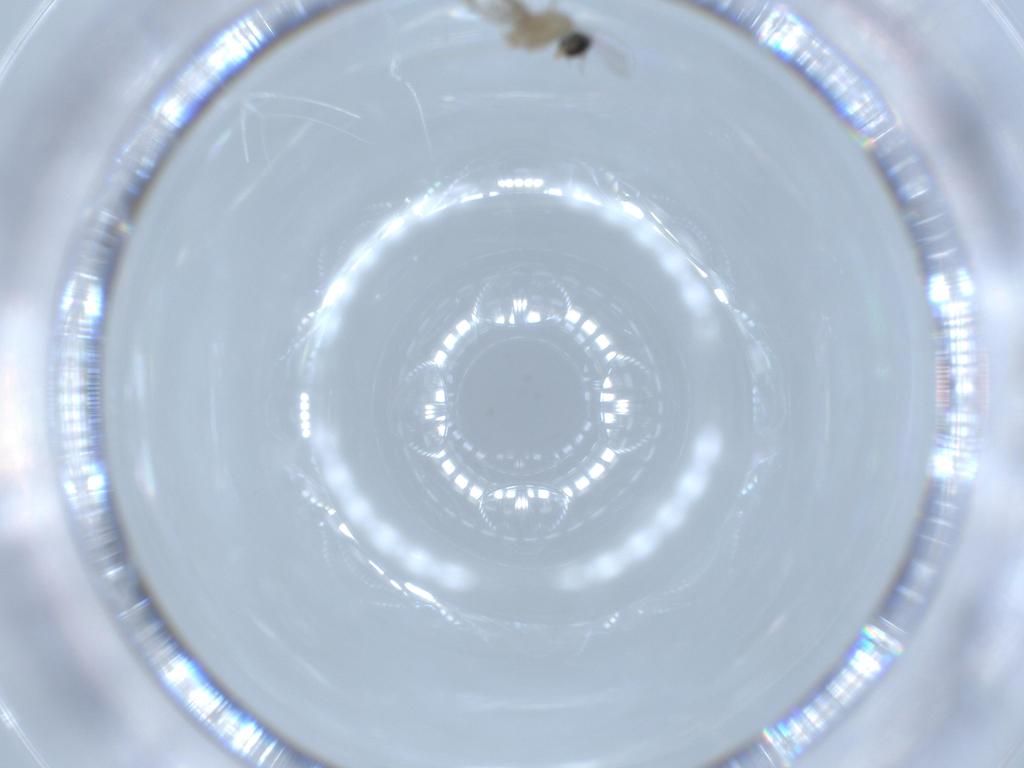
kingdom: Animalia
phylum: Arthropoda
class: Insecta
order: Diptera
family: Cecidomyiidae
